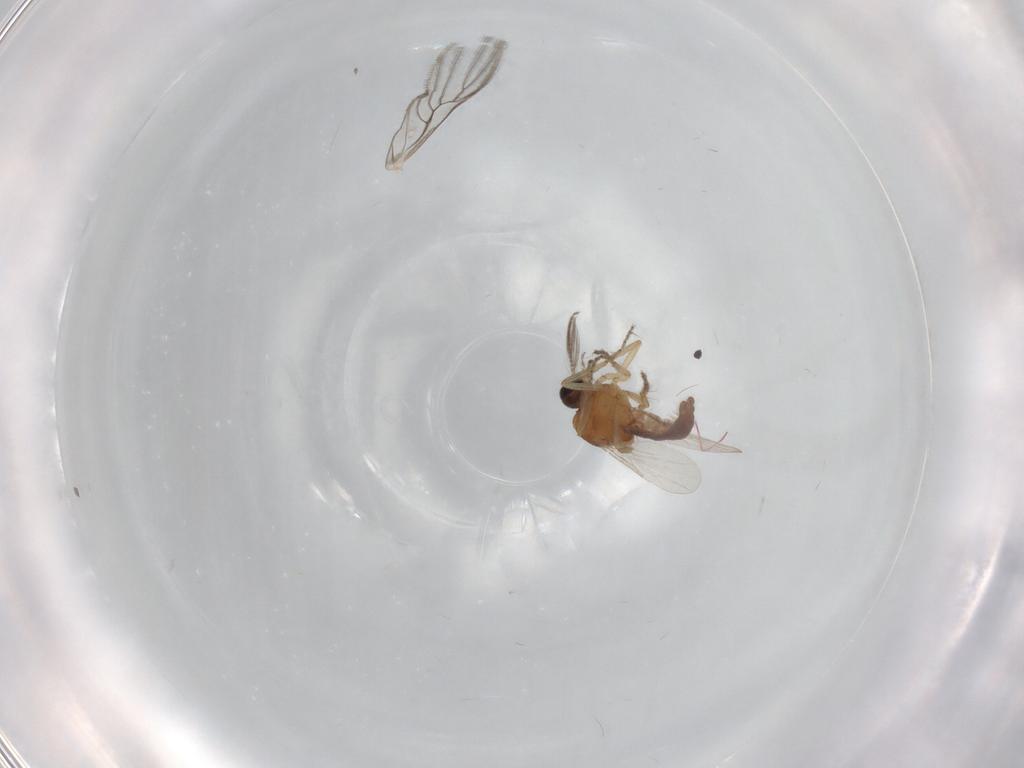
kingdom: Animalia
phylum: Arthropoda
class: Insecta
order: Diptera
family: Ceratopogonidae
